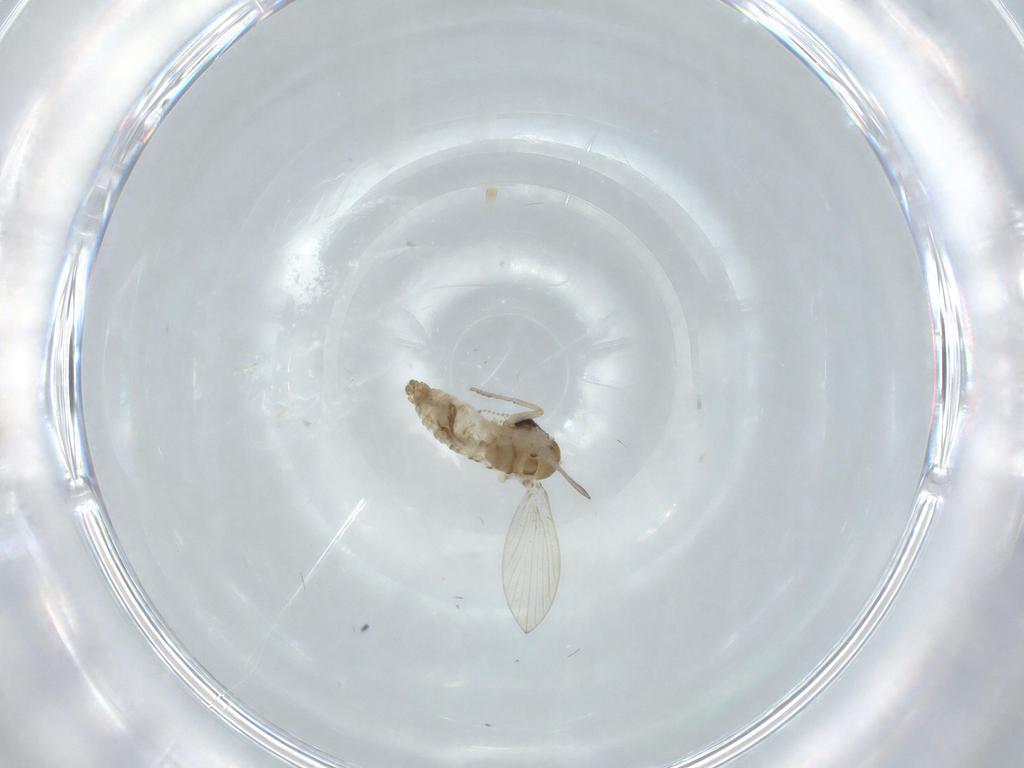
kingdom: Animalia
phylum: Arthropoda
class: Insecta
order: Diptera
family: Psychodidae
